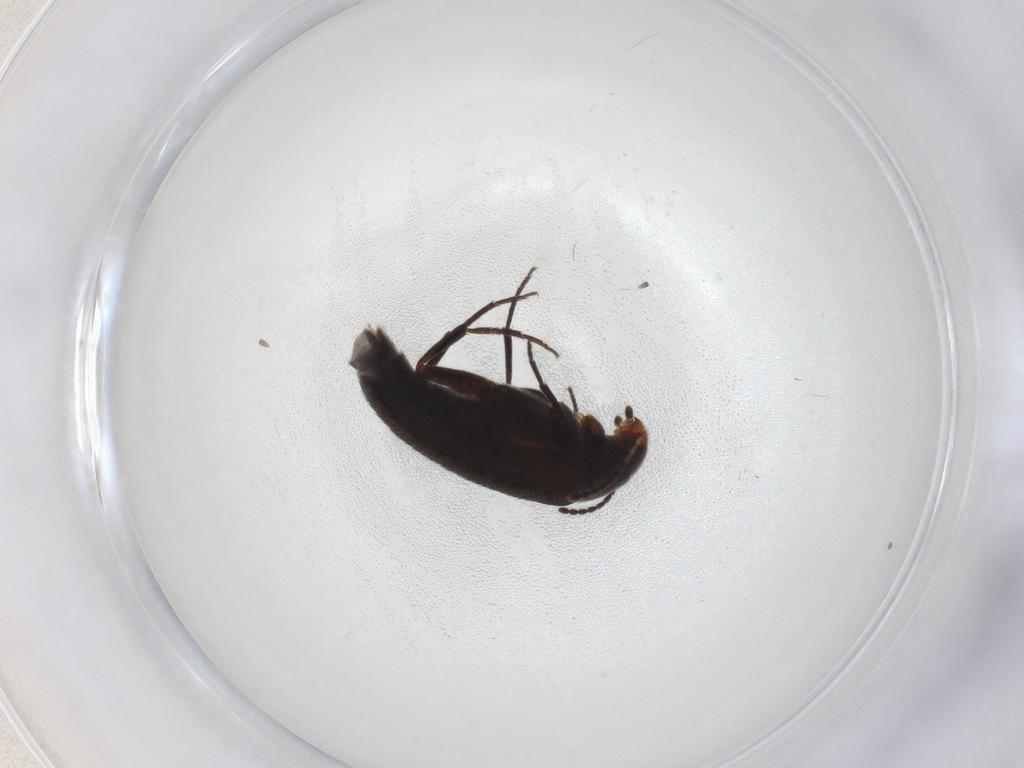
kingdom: Animalia
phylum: Arthropoda
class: Insecta
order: Coleoptera
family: Melandryidae
